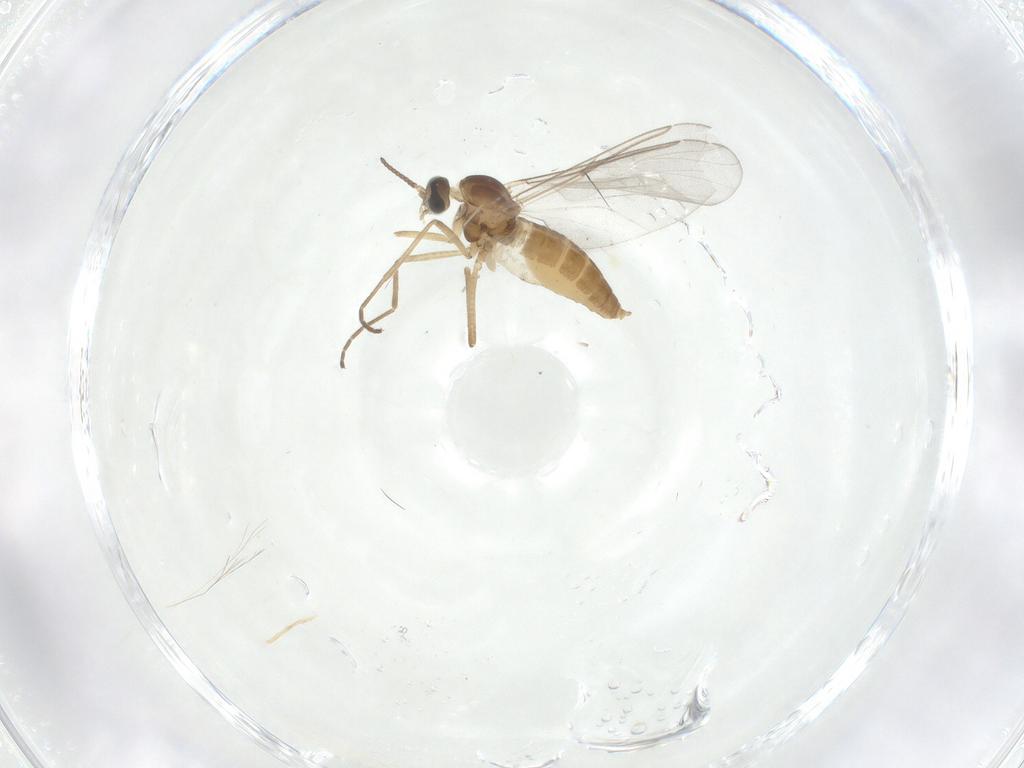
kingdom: Animalia
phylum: Arthropoda
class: Insecta
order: Diptera
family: Cecidomyiidae
